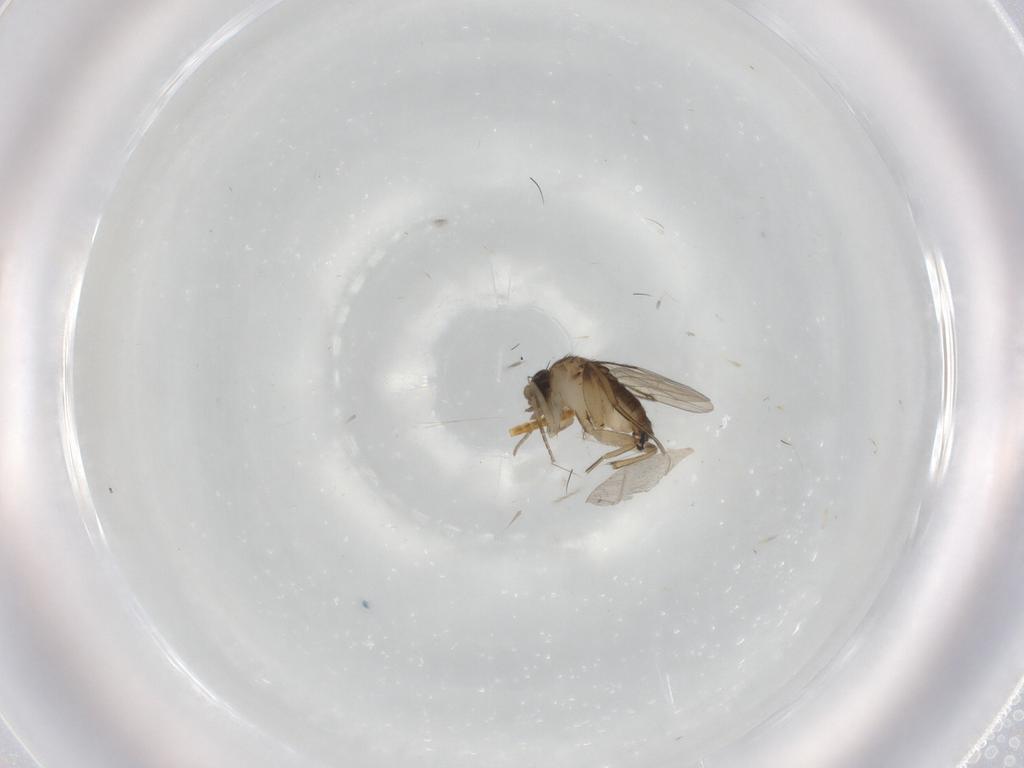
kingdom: Animalia
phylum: Arthropoda
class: Insecta
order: Diptera
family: Phoridae
